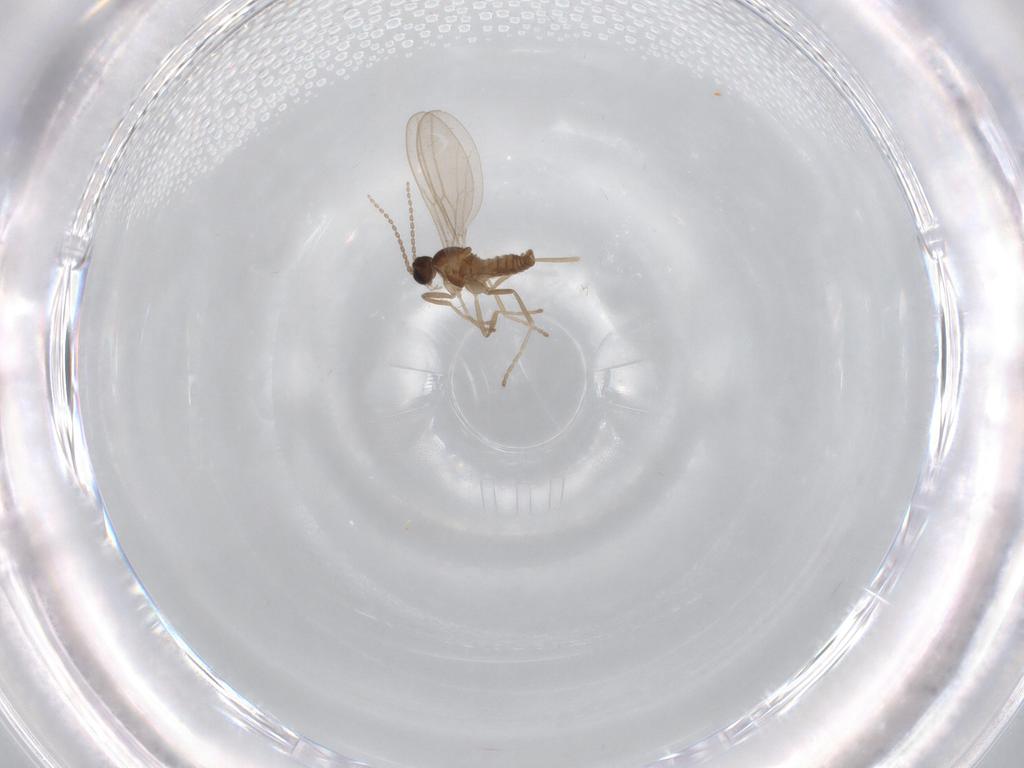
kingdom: Animalia
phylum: Arthropoda
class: Insecta
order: Diptera
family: Cecidomyiidae
